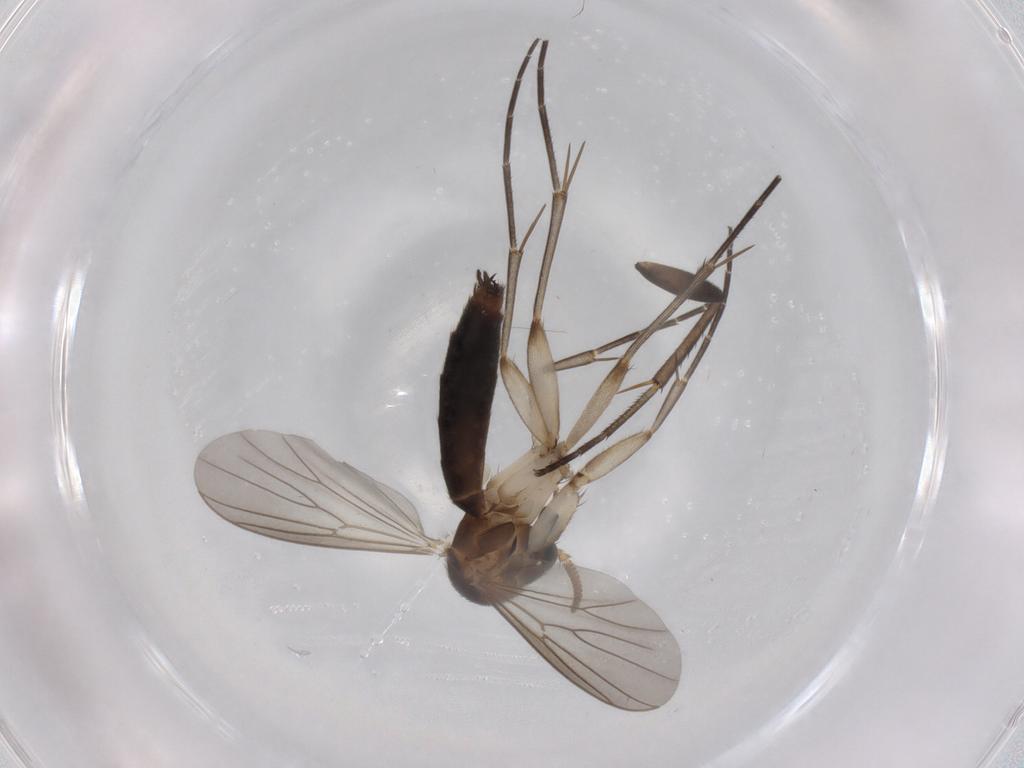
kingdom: Animalia
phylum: Arthropoda
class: Insecta
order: Diptera
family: Mycetophilidae
